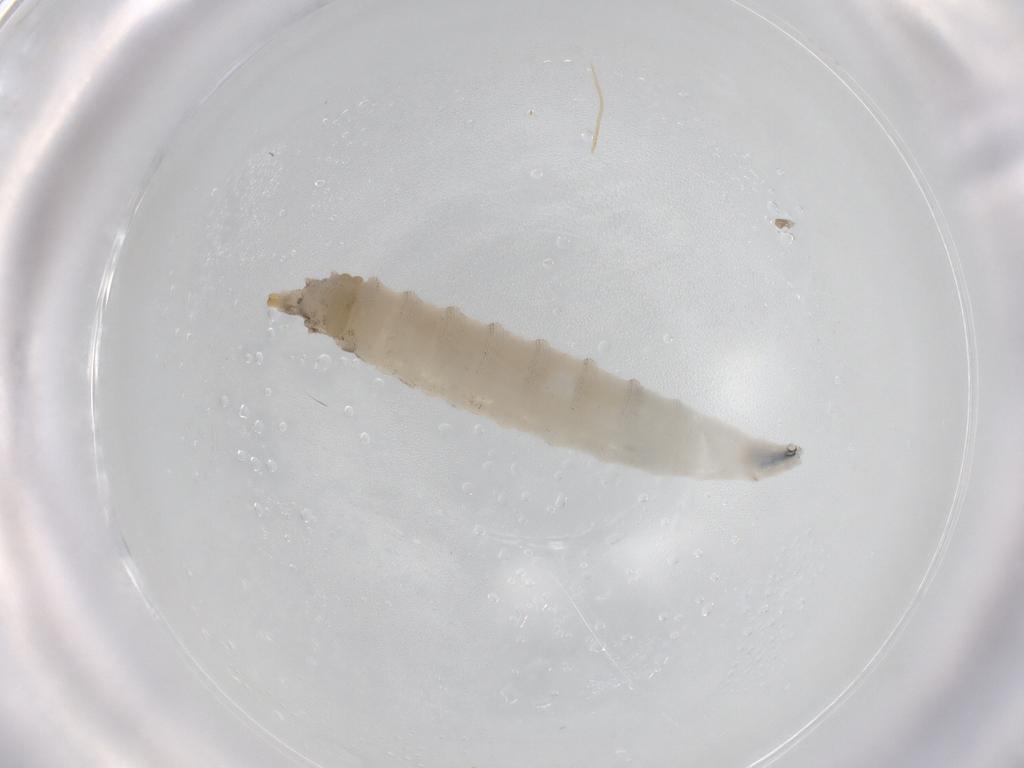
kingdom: Animalia
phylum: Arthropoda
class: Insecta
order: Diptera
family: Drosophilidae
